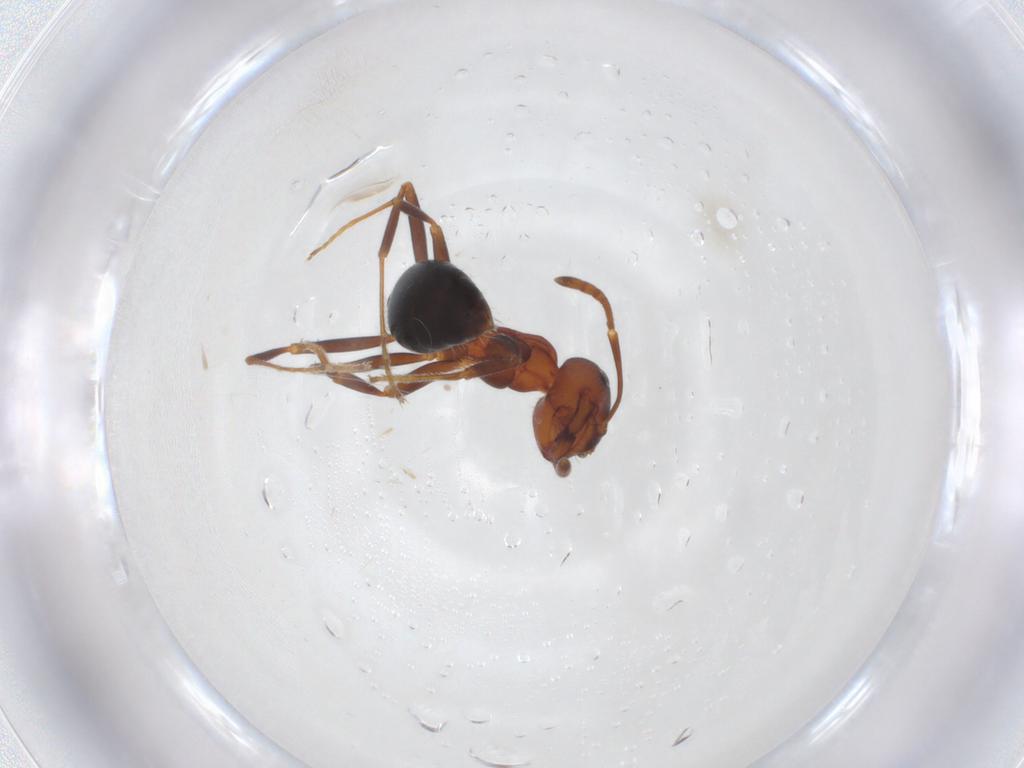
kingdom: Animalia
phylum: Arthropoda
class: Insecta
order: Hymenoptera
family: Formicidae
